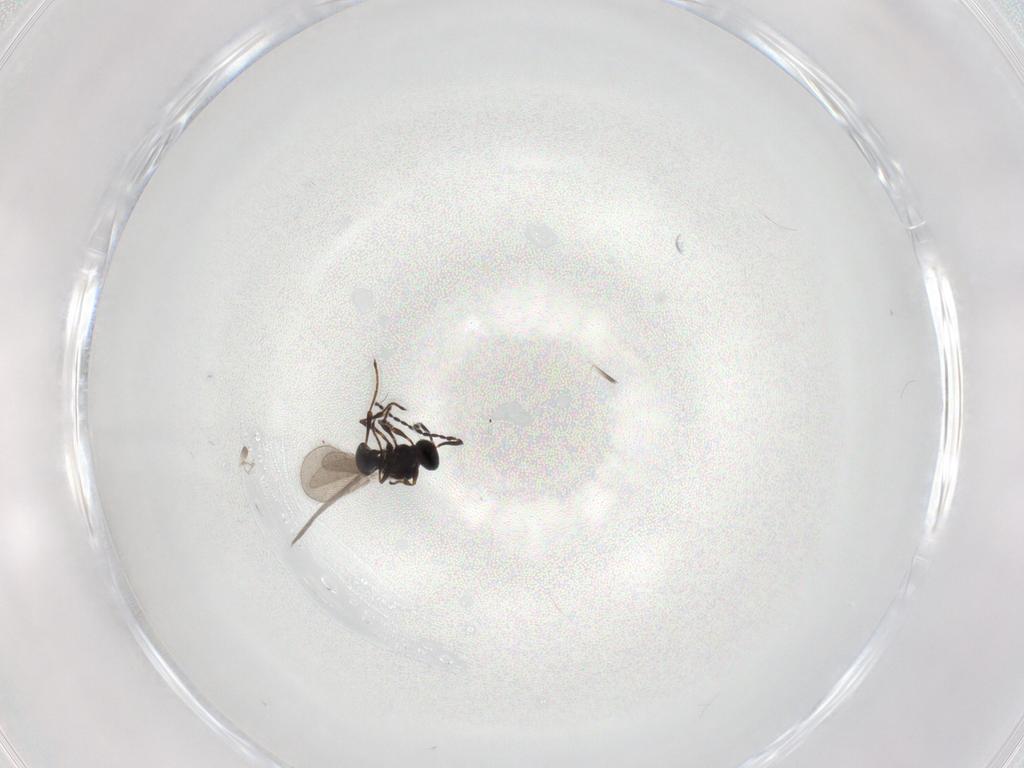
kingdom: Animalia
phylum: Arthropoda
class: Insecta
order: Hymenoptera
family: Platygastridae
